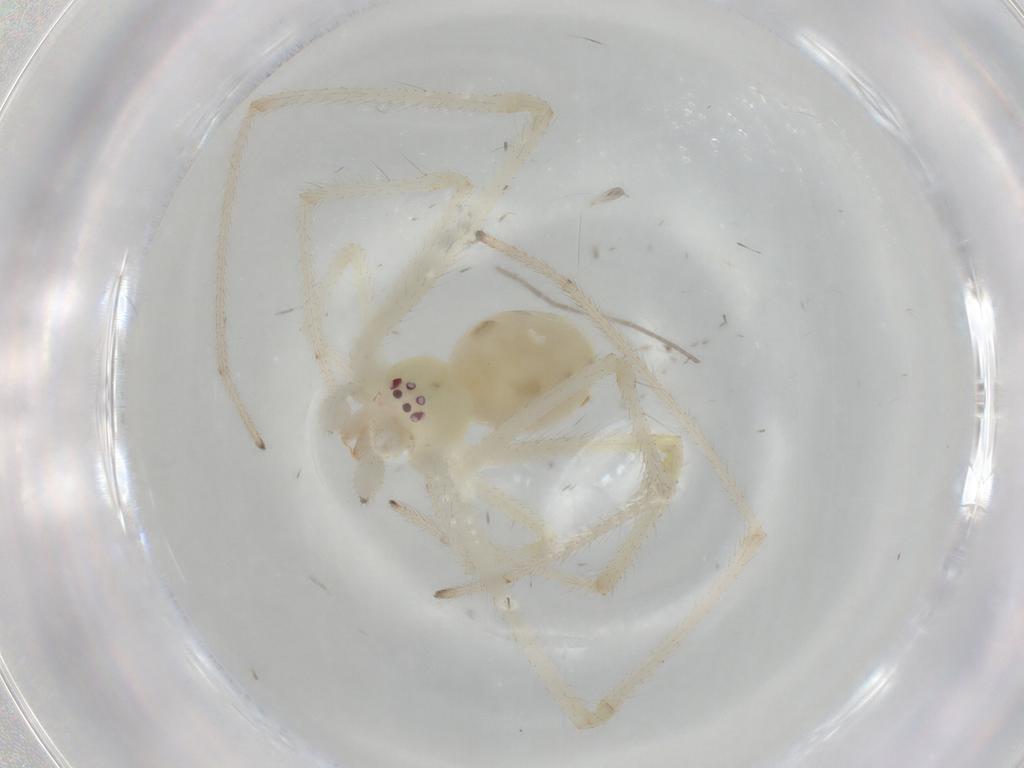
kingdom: Animalia
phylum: Arthropoda
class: Arachnida
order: Araneae
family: Theridiidae
